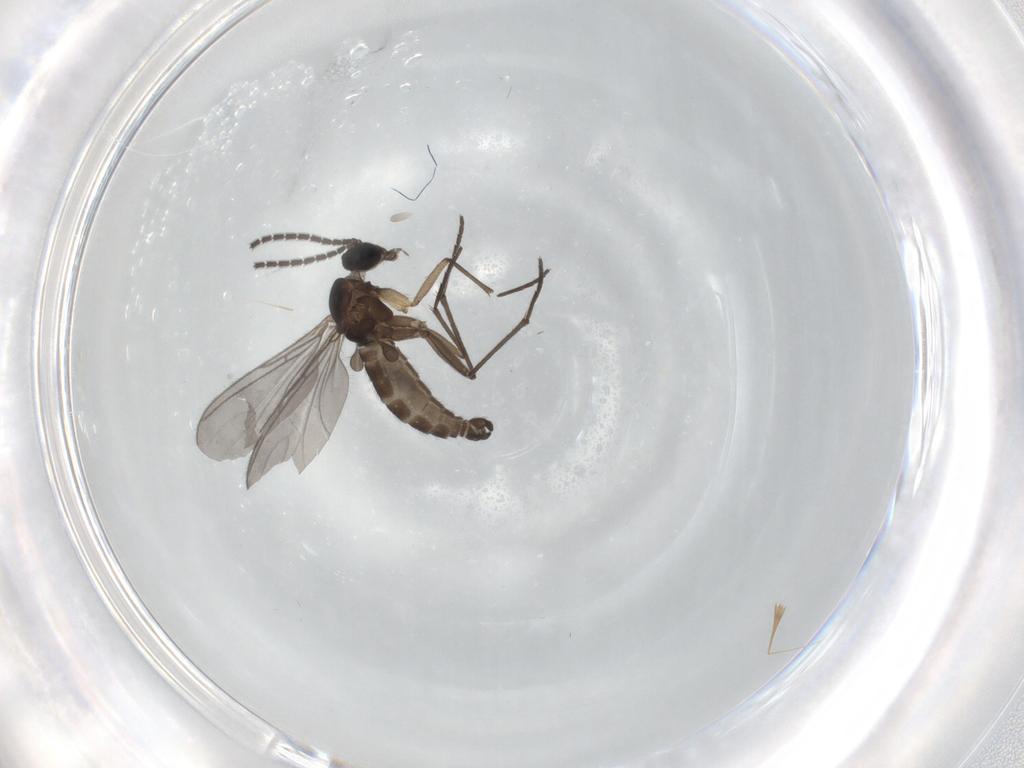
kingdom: Animalia
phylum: Arthropoda
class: Insecta
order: Diptera
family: Sciaridae
